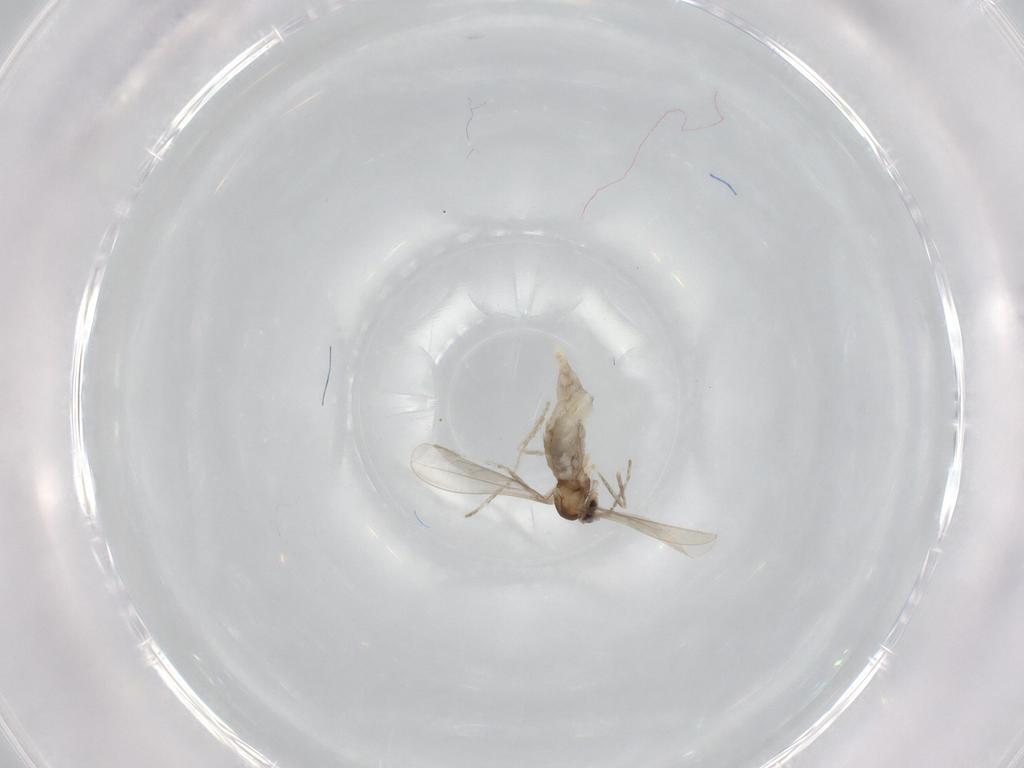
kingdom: Animalia
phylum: Arthropoda
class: Insecta
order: Diptera
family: Cecidomyiidae
